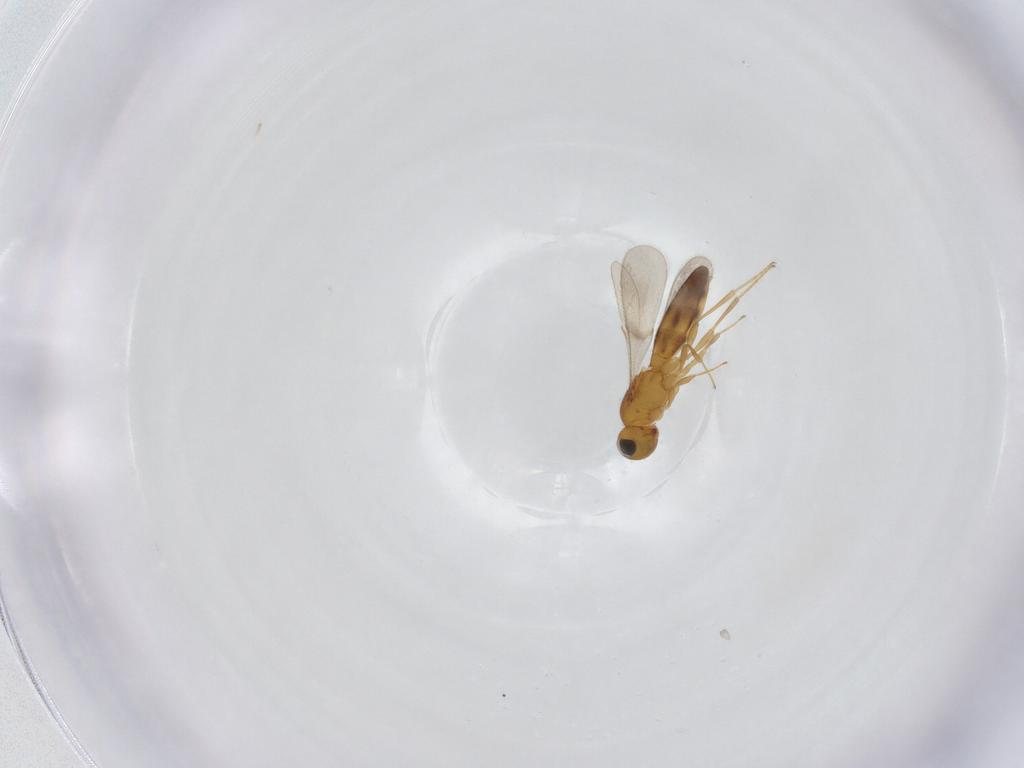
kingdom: Animalia
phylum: Arthropoda
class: Insecta
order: Hymenoptera
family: Scelionidae
